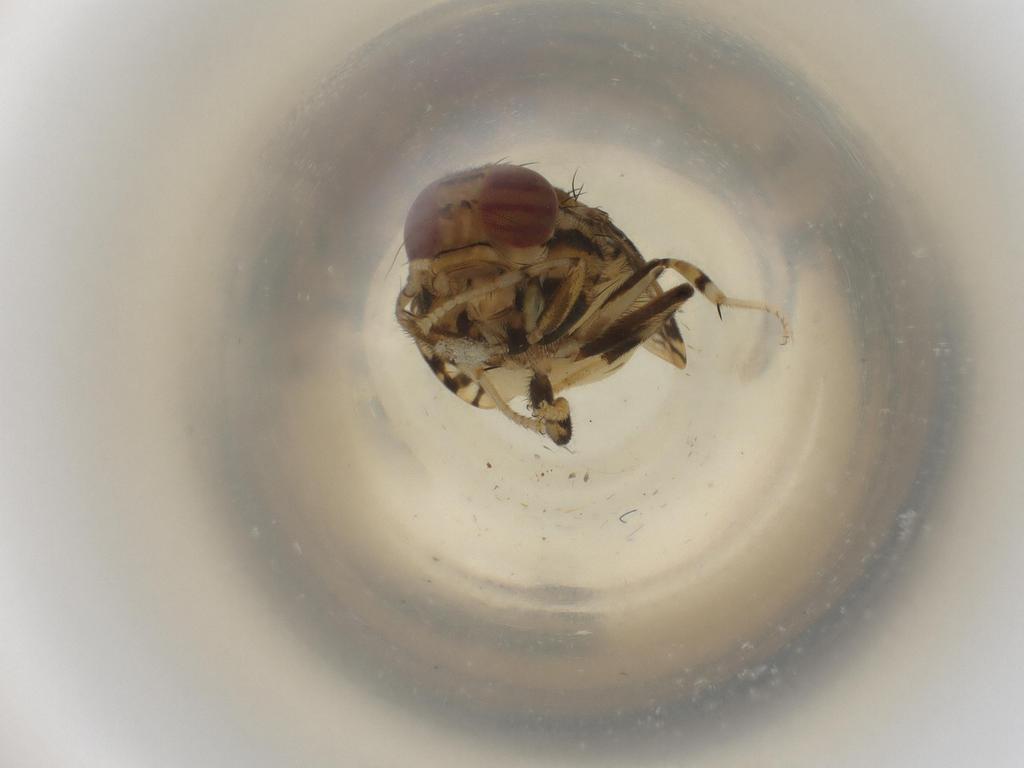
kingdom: Animalia
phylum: Arthropoda
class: Insecta
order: Diptera
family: Platystomatidae
